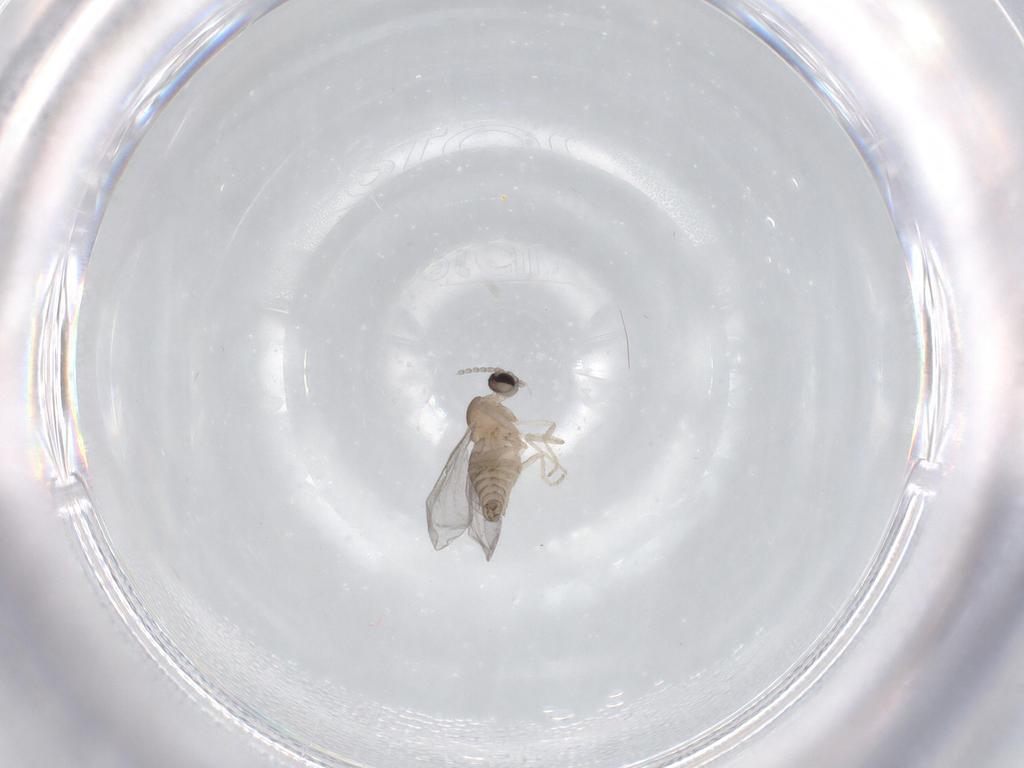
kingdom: Animalia
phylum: Arthropoda
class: Insecta
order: Diptera
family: Cecidomyiidae
